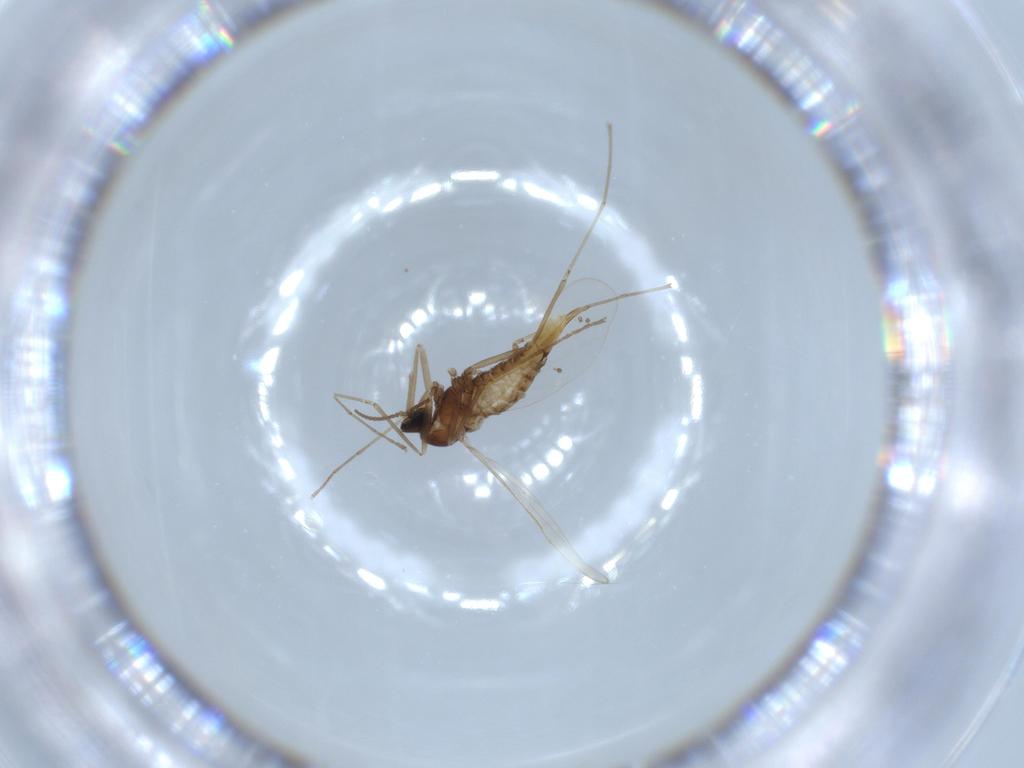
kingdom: Animalia
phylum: Arthropoda
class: Insecta
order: Diptera
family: Sciaridae
